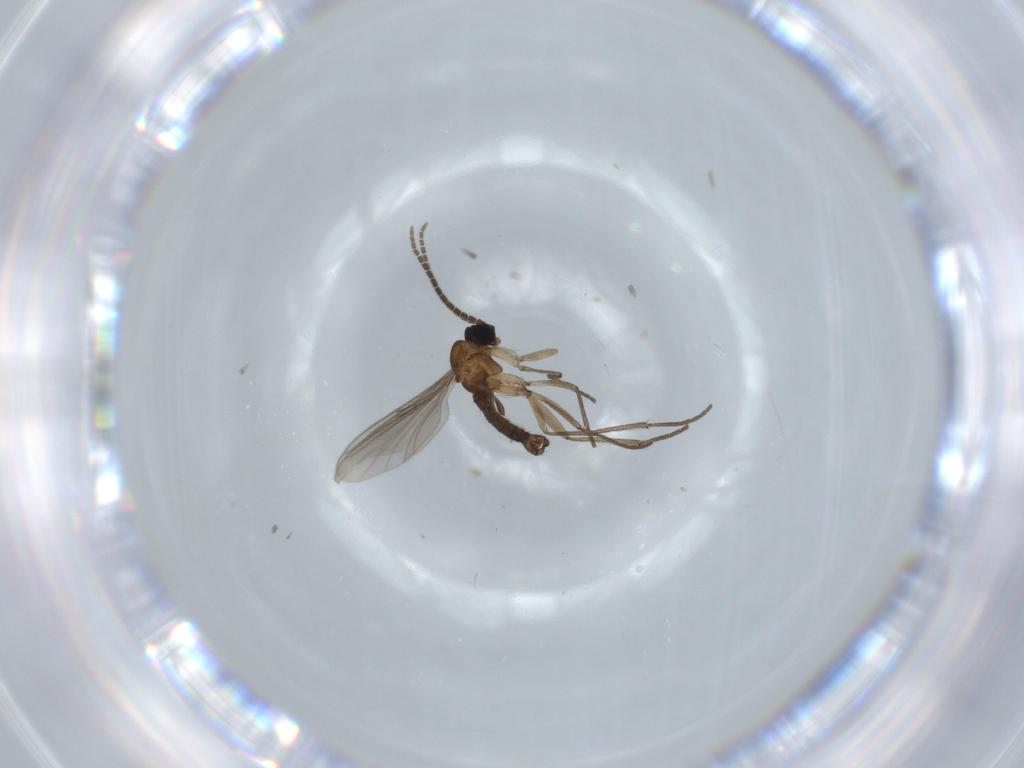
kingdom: Animalia
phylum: Arthropoda
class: Insecta
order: Diptera
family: Sciaridae
